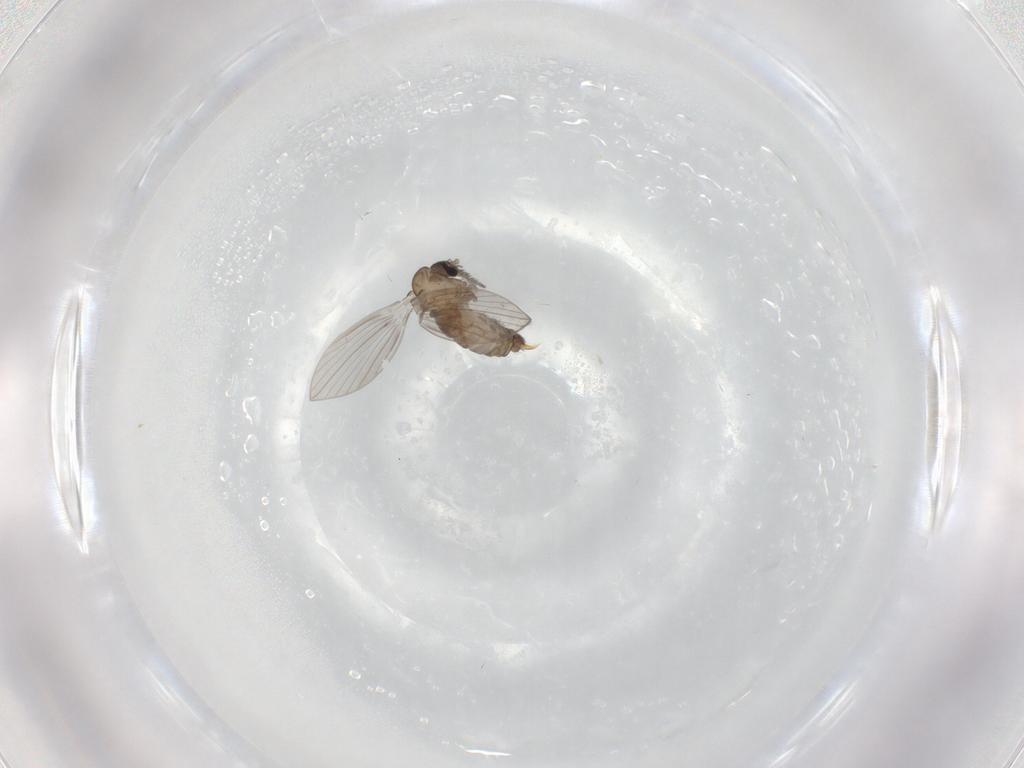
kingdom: Animalia
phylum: Arthropoda
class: Insecta
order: Diptera
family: Psychodidae
